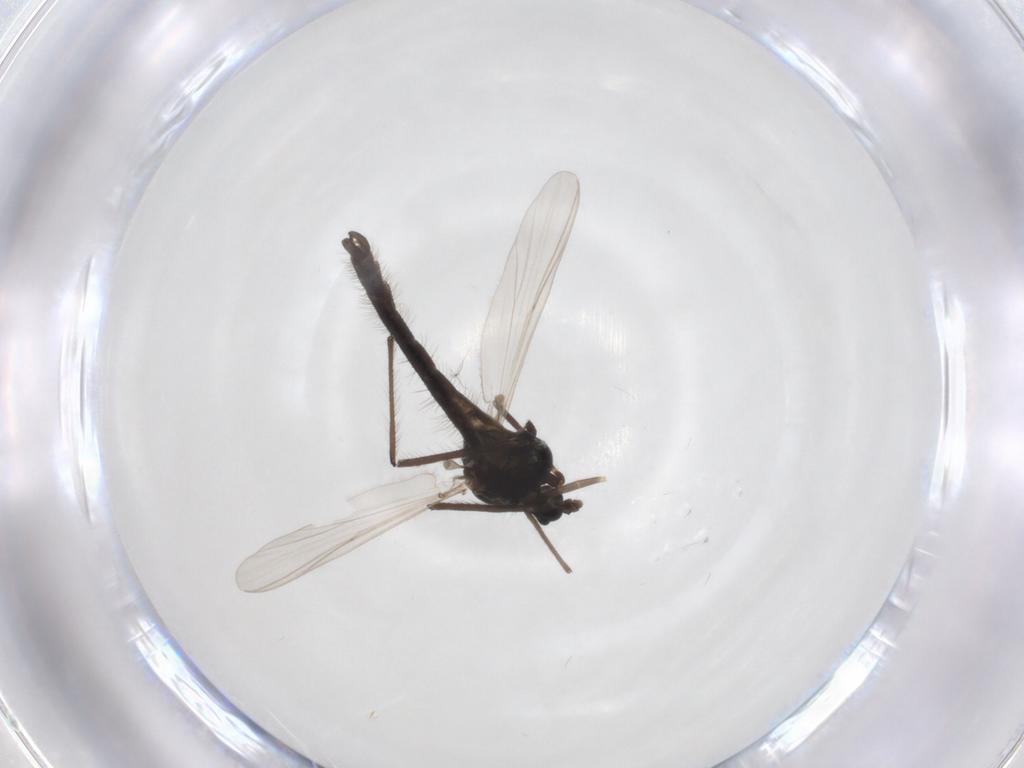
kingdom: Animalia
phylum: Arthropoda
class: Insecta
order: Diptera
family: Chironomidae
